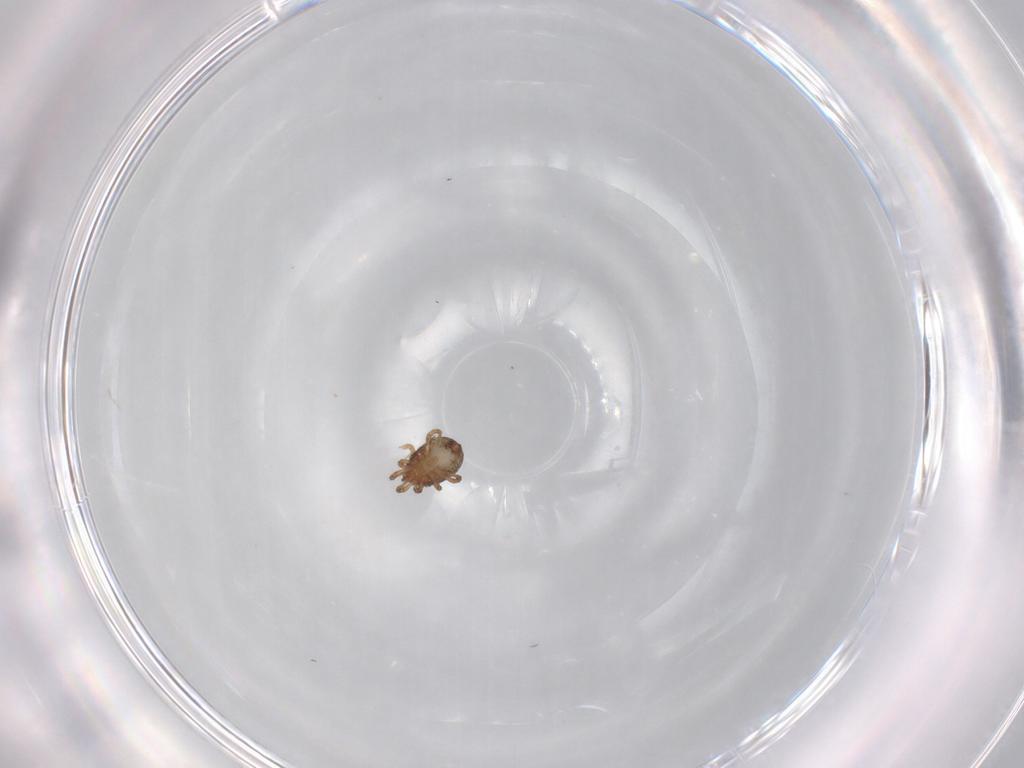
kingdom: Animalia
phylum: Arthropoda
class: Arachnida
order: Mesostigmata
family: Ameroseiidae
